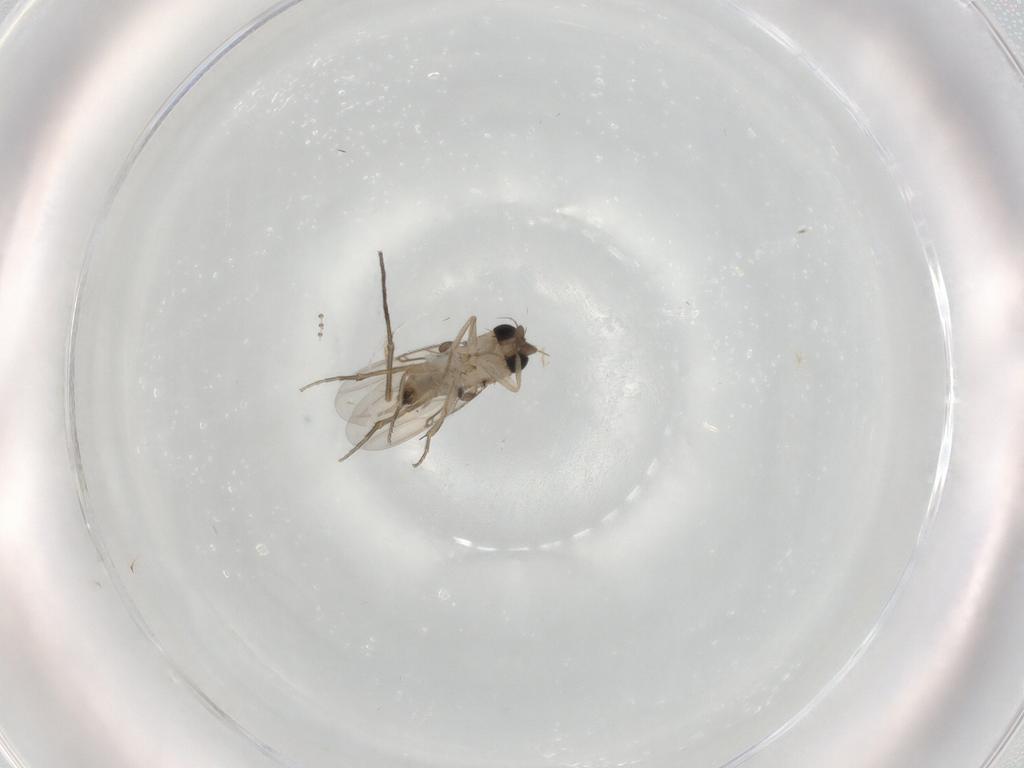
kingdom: Animalia
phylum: Arthropoda
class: Insecta
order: Diptera
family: Sciaridae
